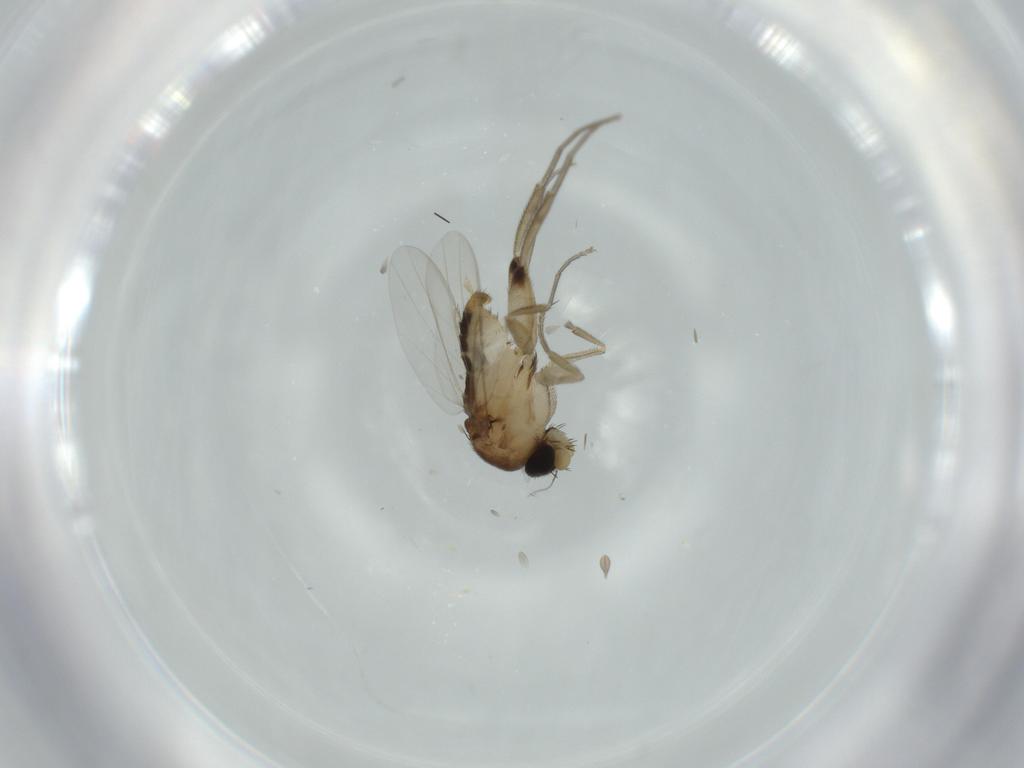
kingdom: Animalia
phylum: Arthropoda
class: Insecta
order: Diptera
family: Phoridae
